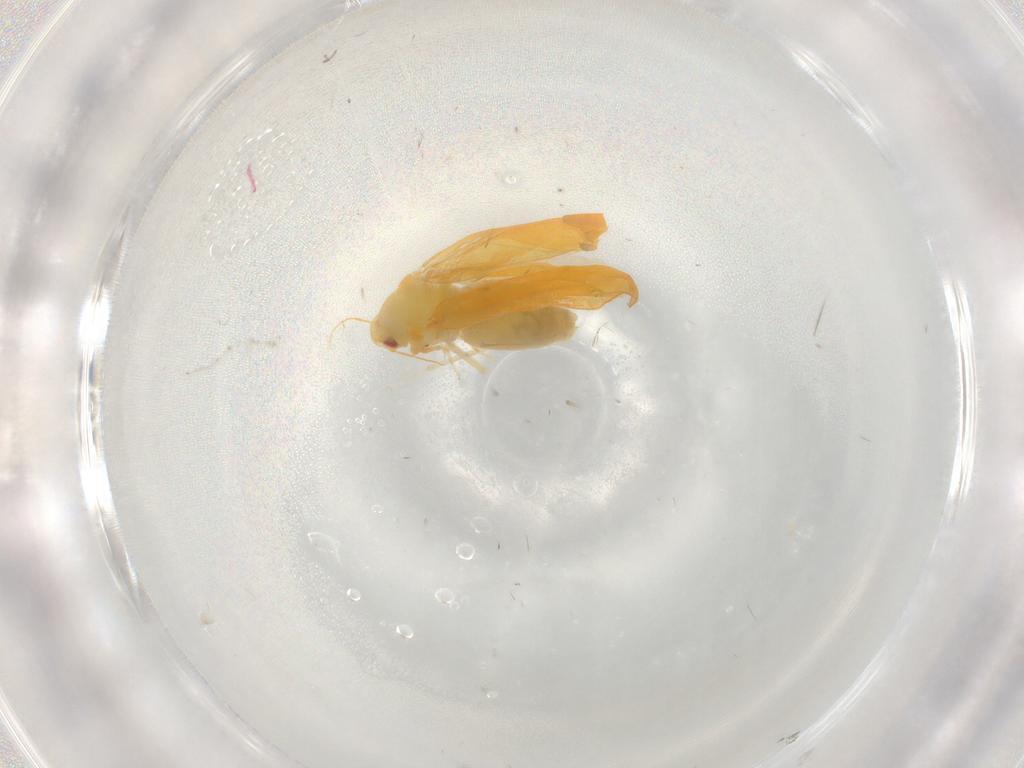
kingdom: Animalia
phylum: Arthropoda
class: Insecta
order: Hemiptera
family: Aleyrodidae
